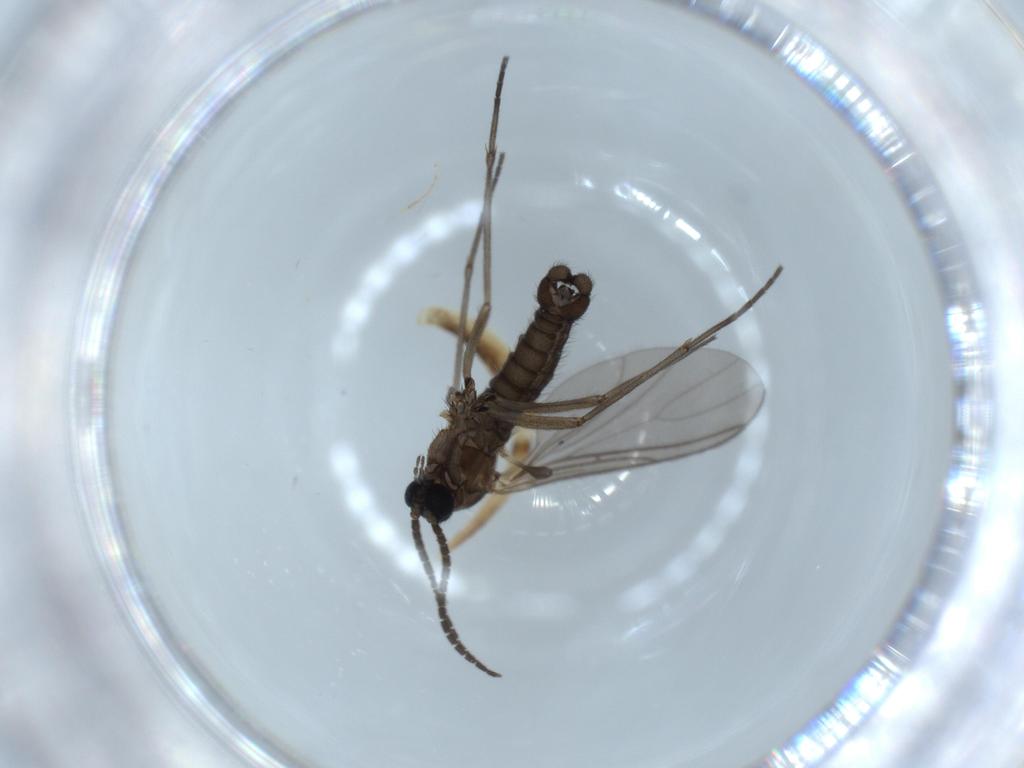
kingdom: Animalia
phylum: Arthropoda
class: Insecta
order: Diptera
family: Sciaridae
